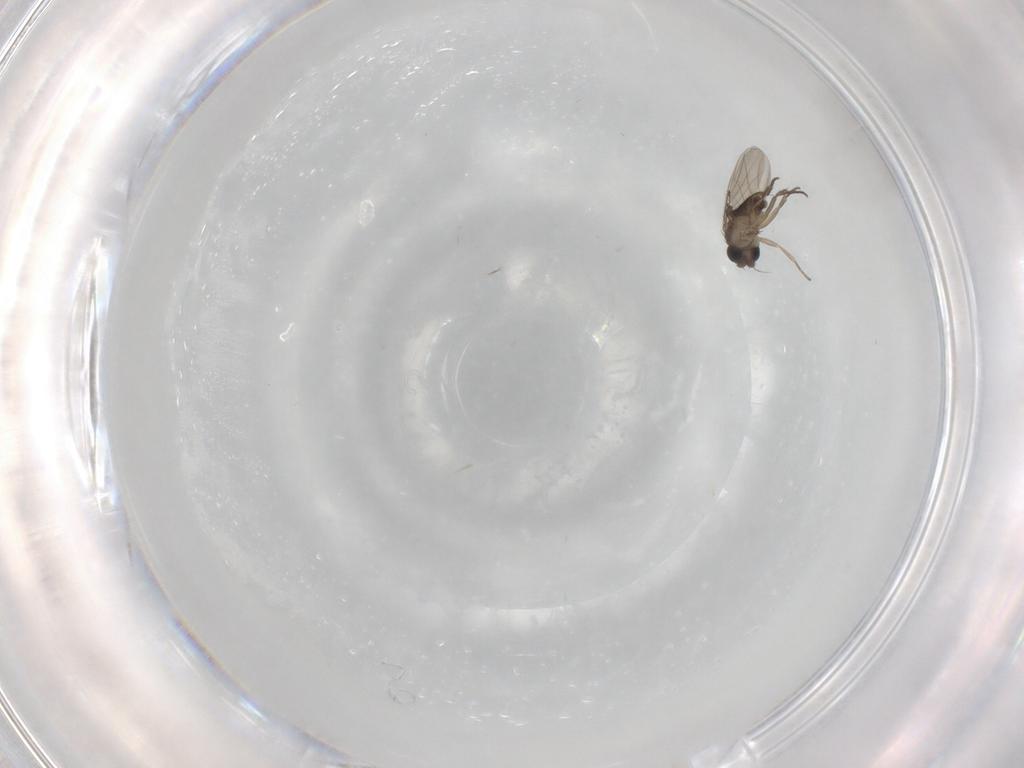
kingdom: Animalia
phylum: Arthropoda
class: Insecta
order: Diptera
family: Phoridae
